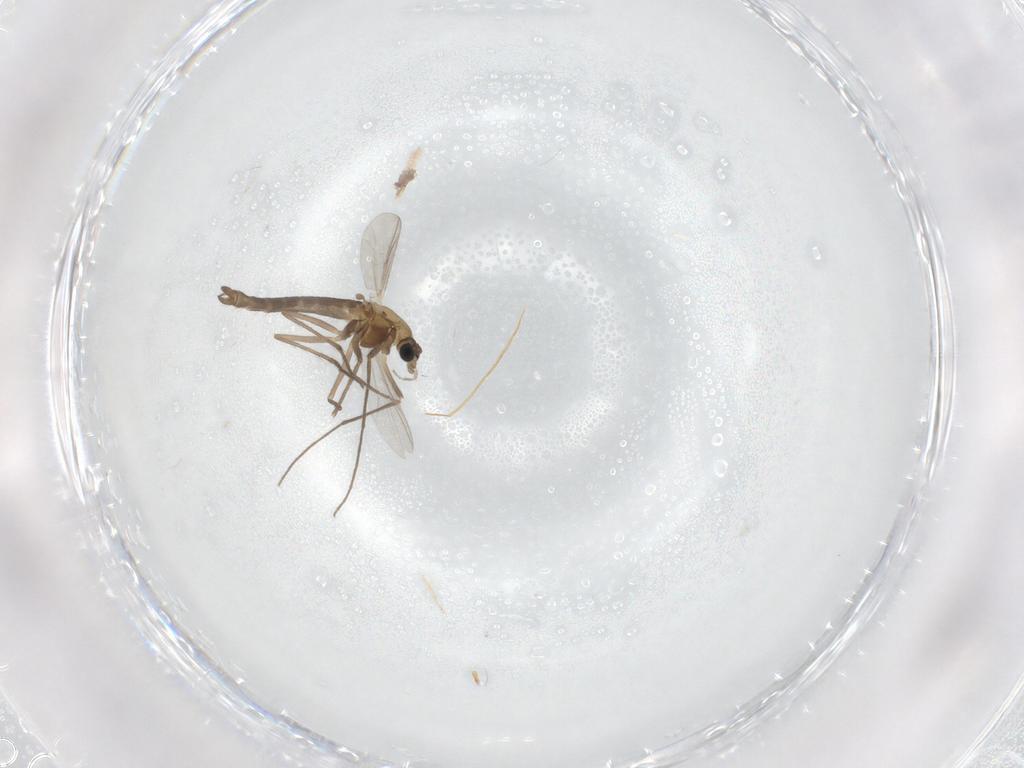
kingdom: Animalia
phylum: Arthropoda
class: Insecta
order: Diptera
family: Chironomidae
